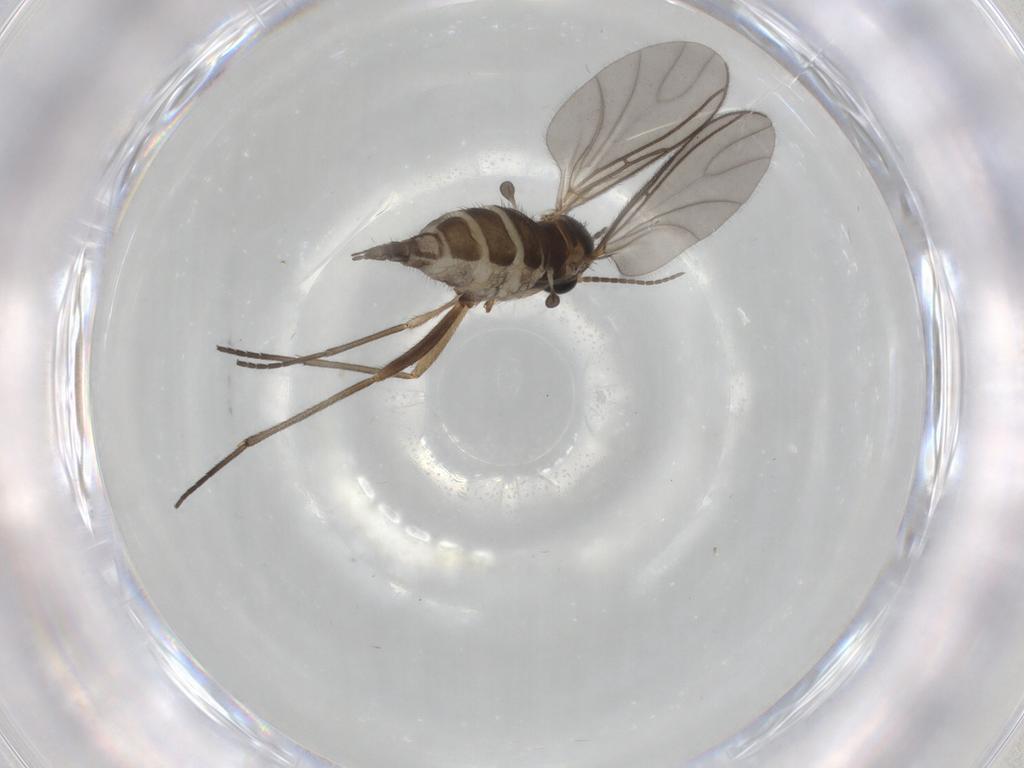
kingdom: Animalia
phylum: Arthropoda
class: Insecta
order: Diptera
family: Sciaridae
